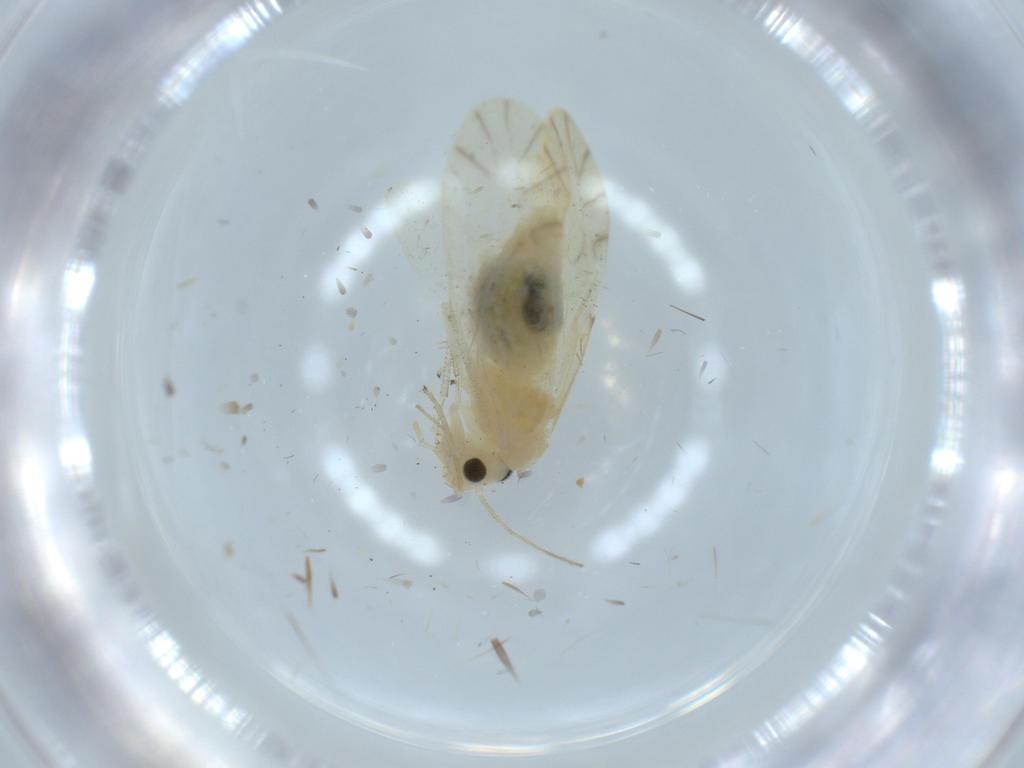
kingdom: Animalia
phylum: Arthropoda
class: Insecta
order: Psocodea
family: Caeciliusidae
